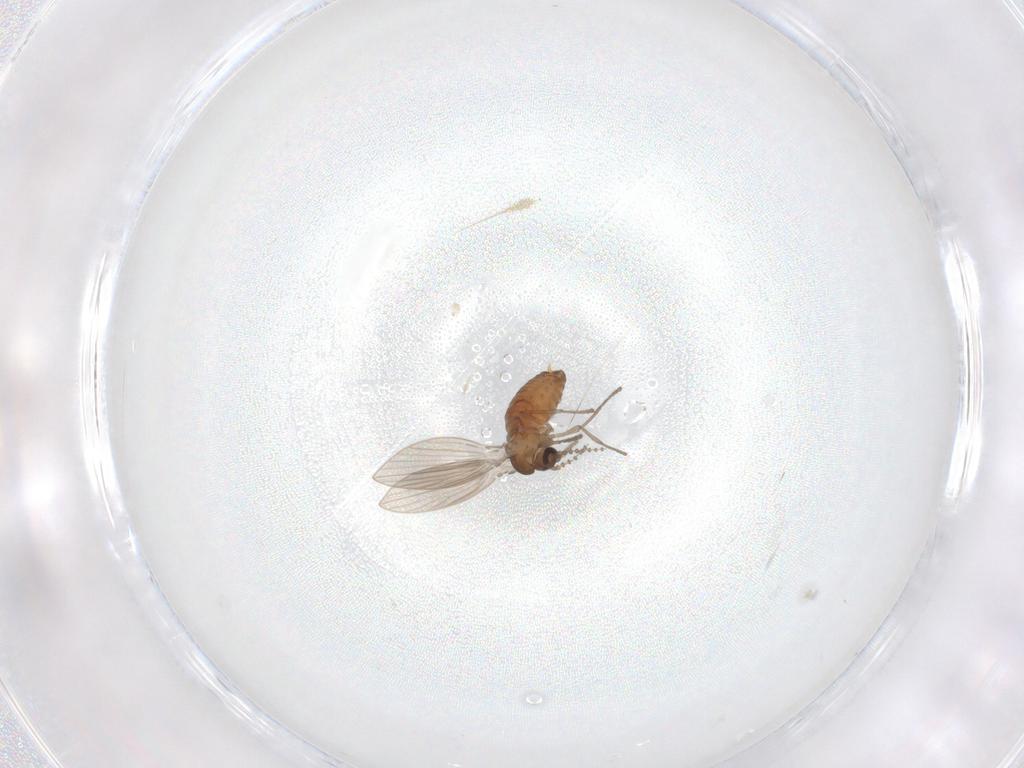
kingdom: Animalia
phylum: Arthropoda
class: Insecta
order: Diptera
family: Psychodidae
